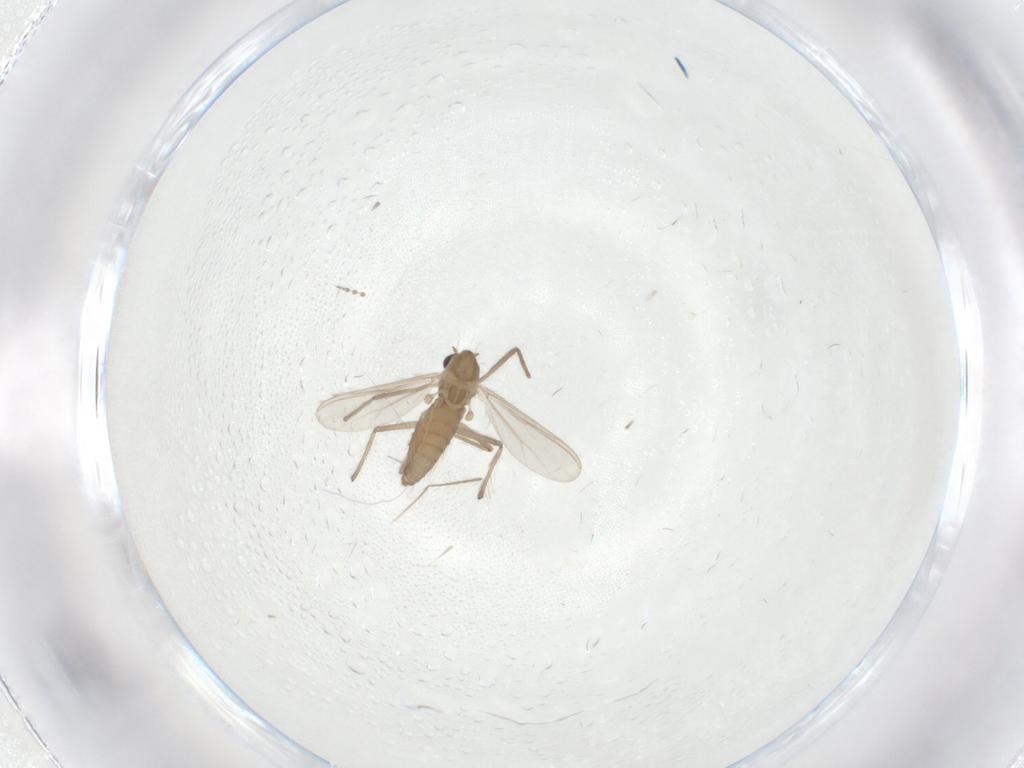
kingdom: Animalia
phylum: Arthropoda
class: Insecta
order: Diptera
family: Chironomidae
